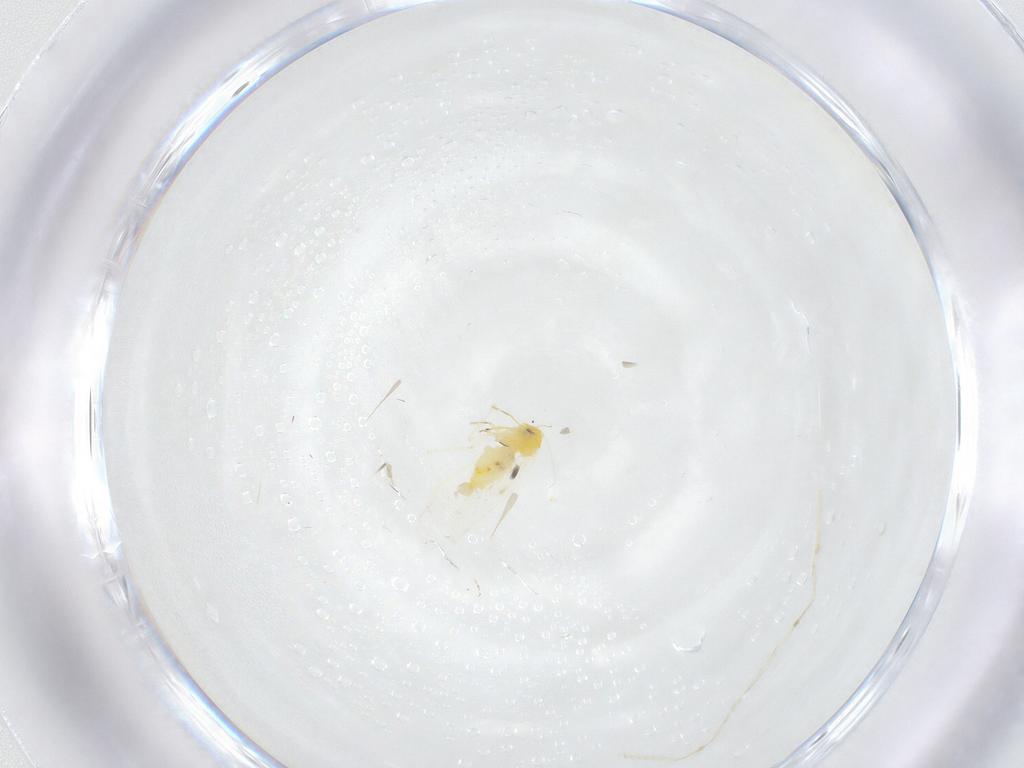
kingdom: Animalia
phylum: Arthropoda
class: Insecta
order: Hemiptera
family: Aleyrodidae
